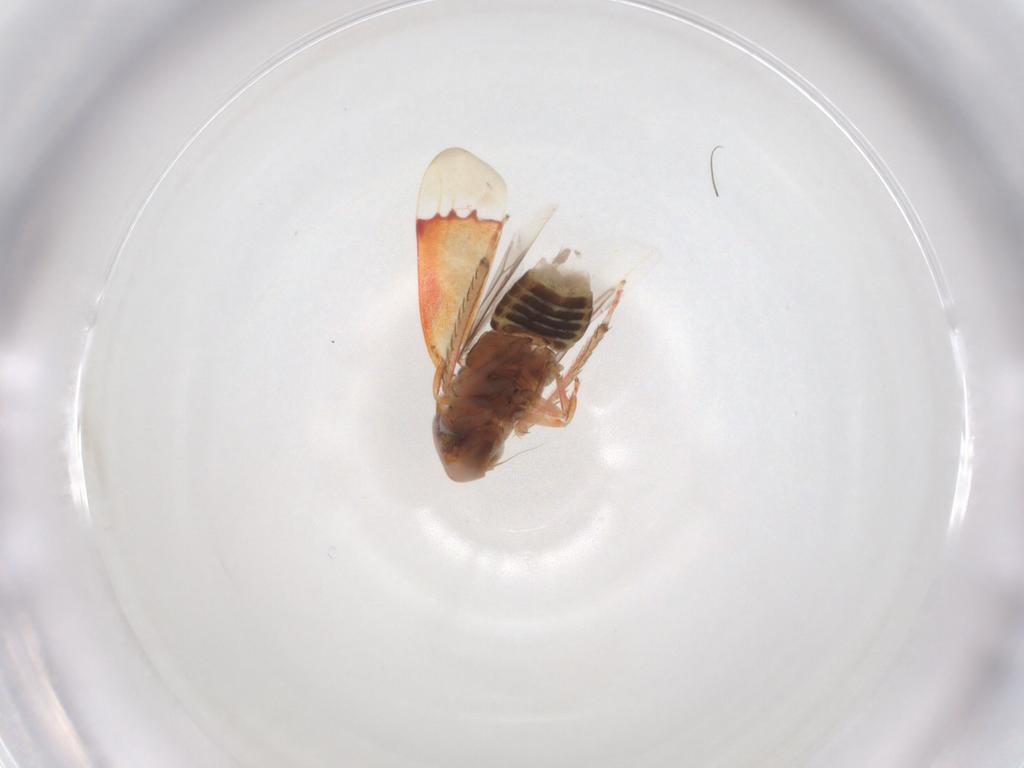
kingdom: Animalia
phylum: Arthropoda
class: Insecta
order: Hemiptera
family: Cicadellidae
